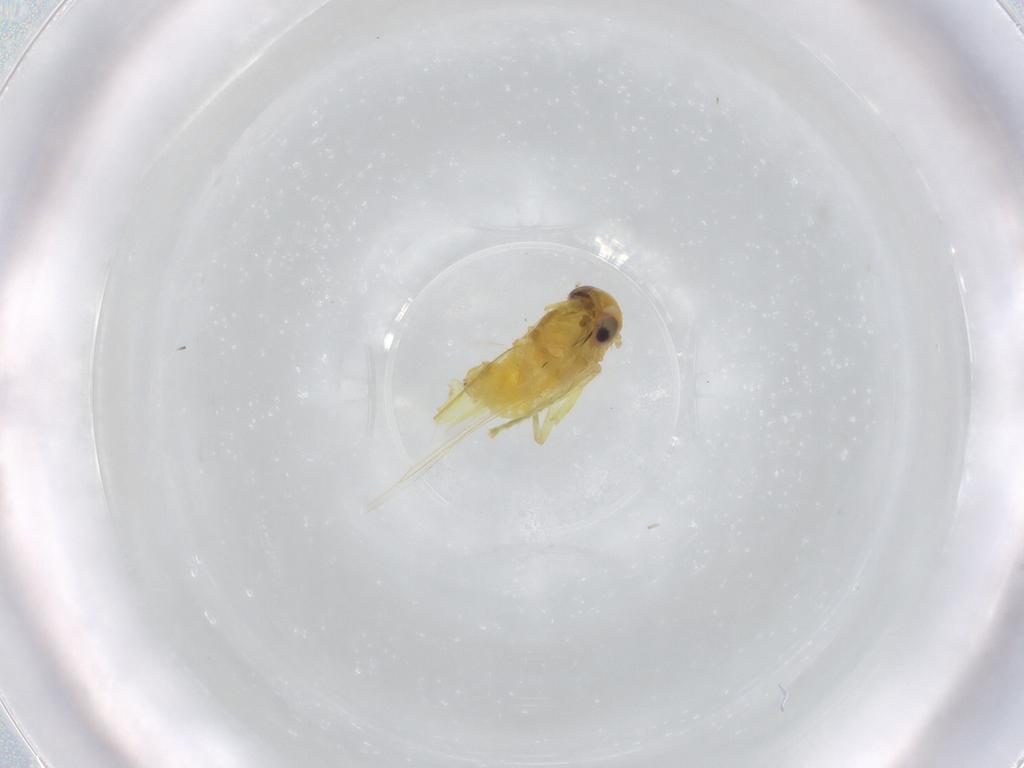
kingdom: Animalia
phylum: Arthropoda
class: Insecta
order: Hemiptera
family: Cicadellidae
